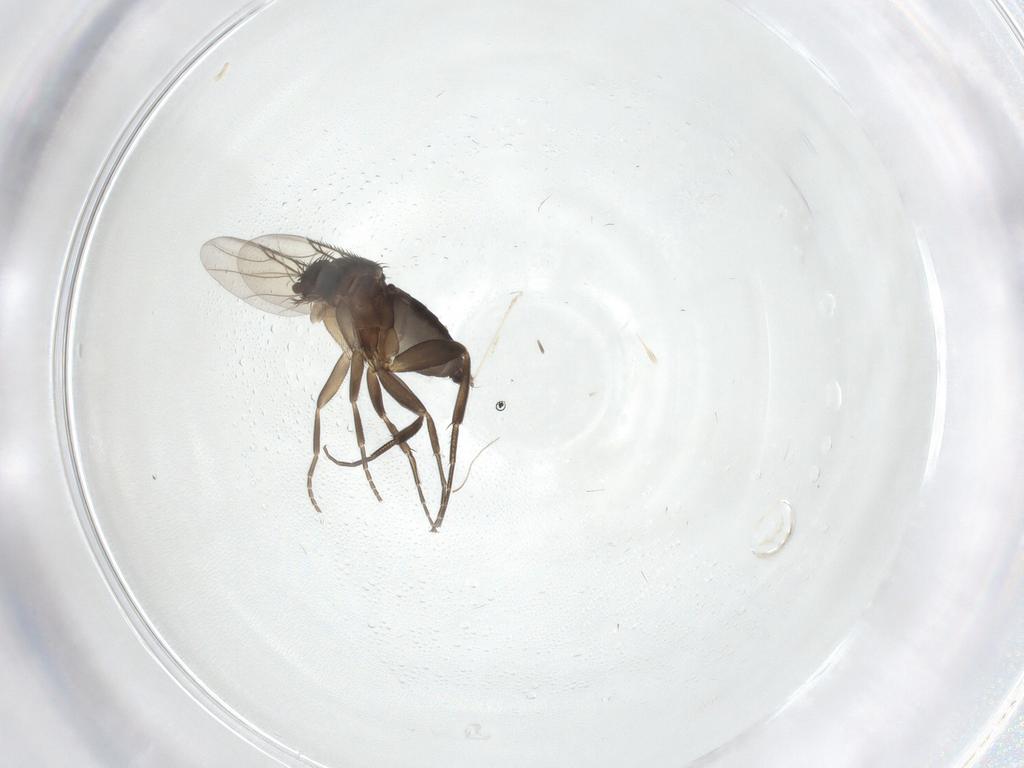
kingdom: Animalia
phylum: Arthropoda
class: Insecta
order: Diptera
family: Phoridae
